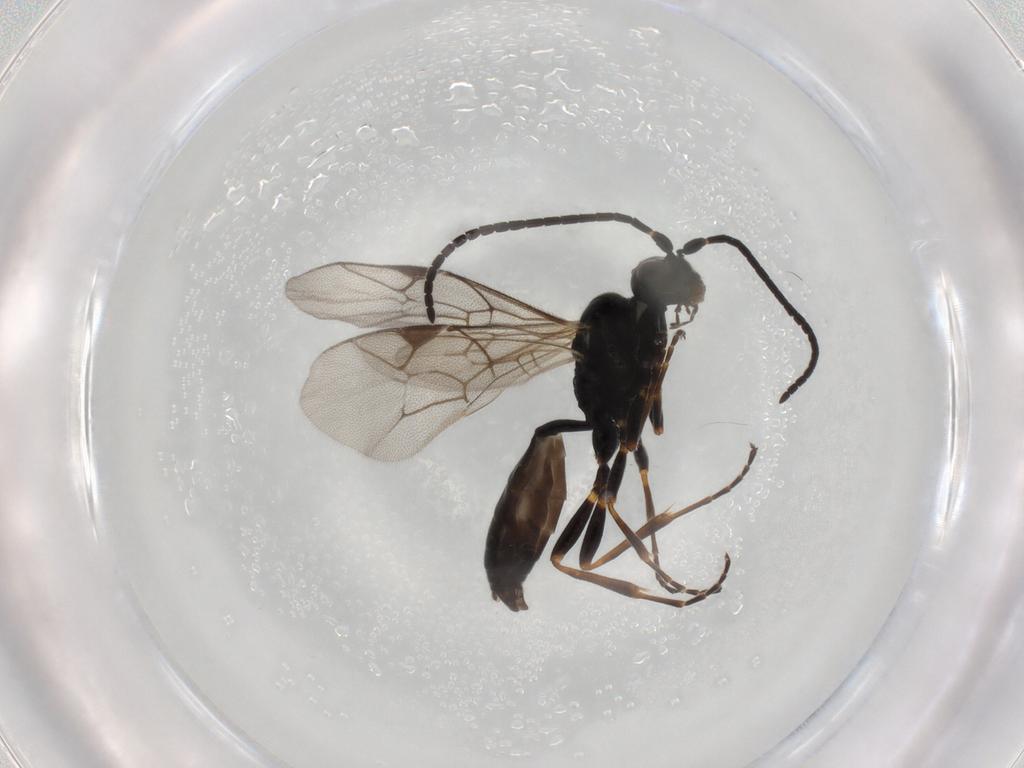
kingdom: Animalia
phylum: Arthropoda
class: Insecta
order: Hymenoptera
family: Ichneumonidae
